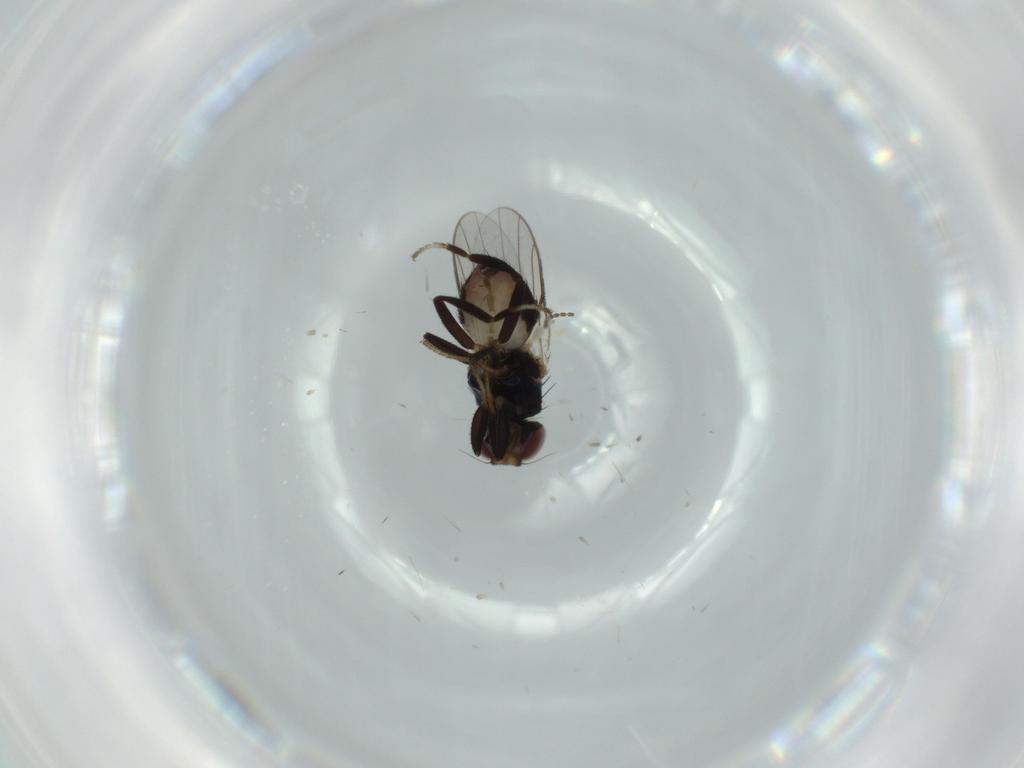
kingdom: Animalia
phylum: Arthropoda
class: Insecta
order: Diptera
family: Chloropidae
